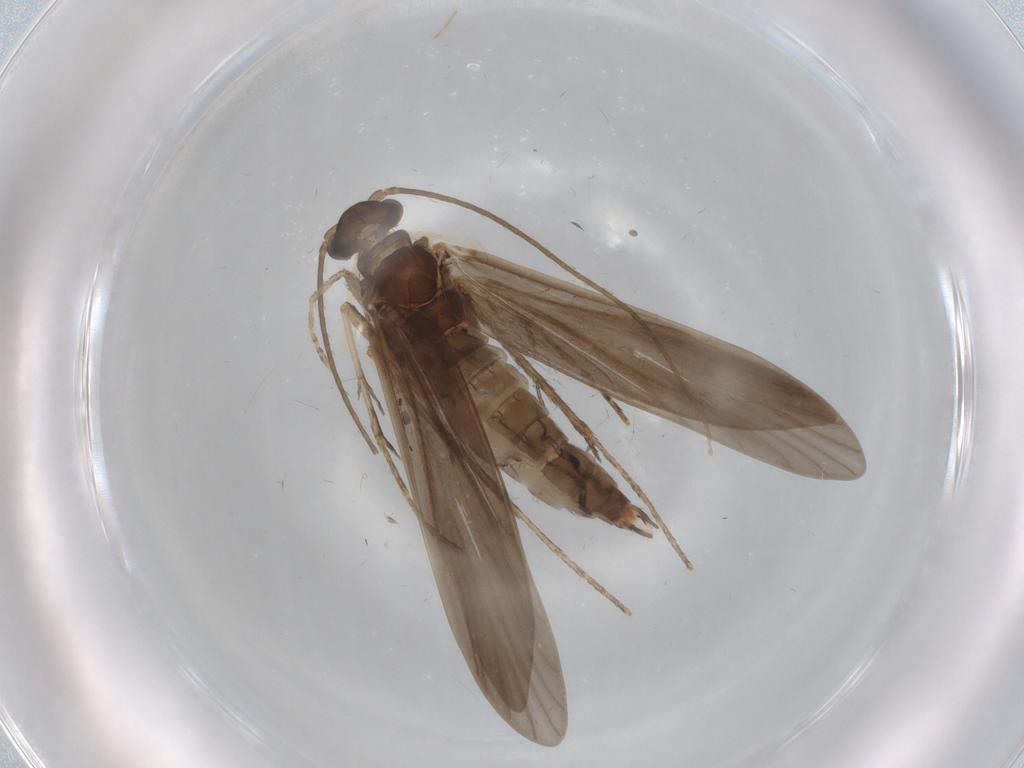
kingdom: Animalia
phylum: Arthropoda
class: Insecta
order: Trichoptera
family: Xiphocentronidae
